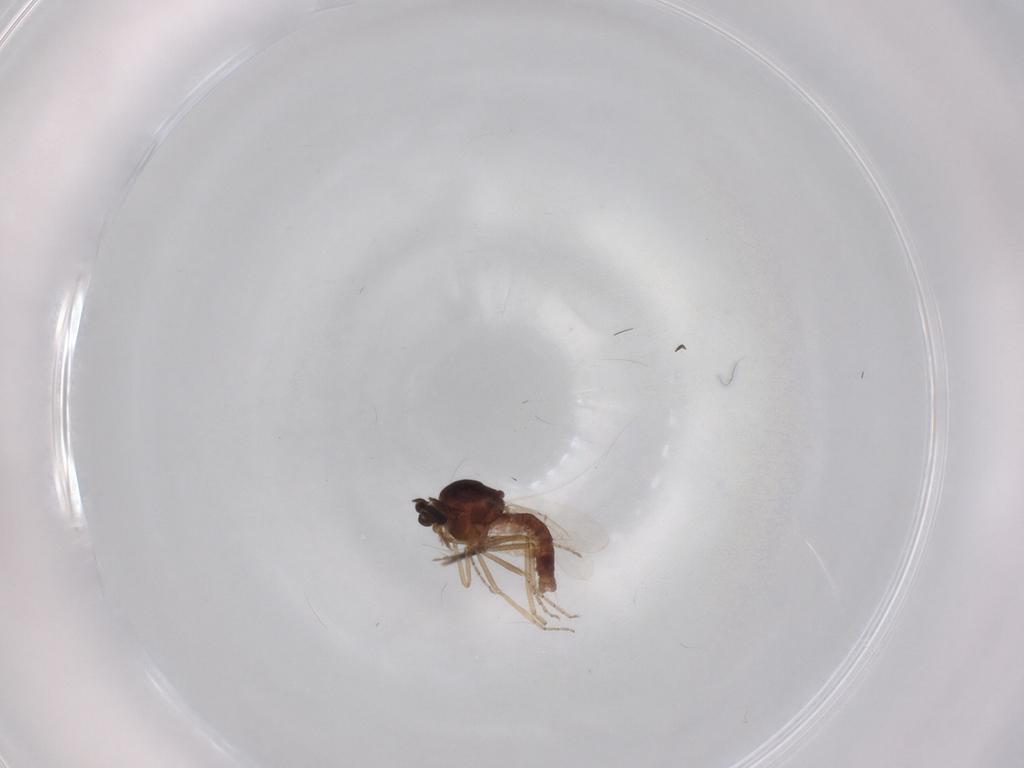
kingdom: Animalia
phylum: Arthropoda
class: Insecta
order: Diptera
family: Ceratopogonidae
